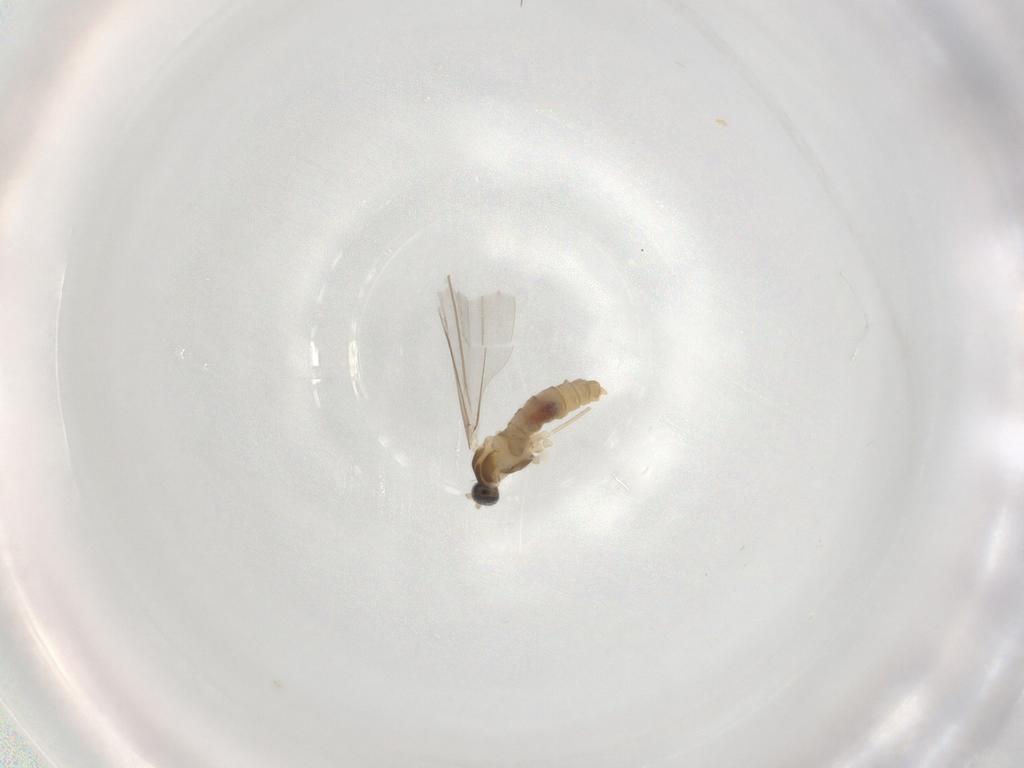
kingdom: Animalia
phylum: Arthropoda
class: Insecta
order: Diptera
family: Cecidomyiidae
